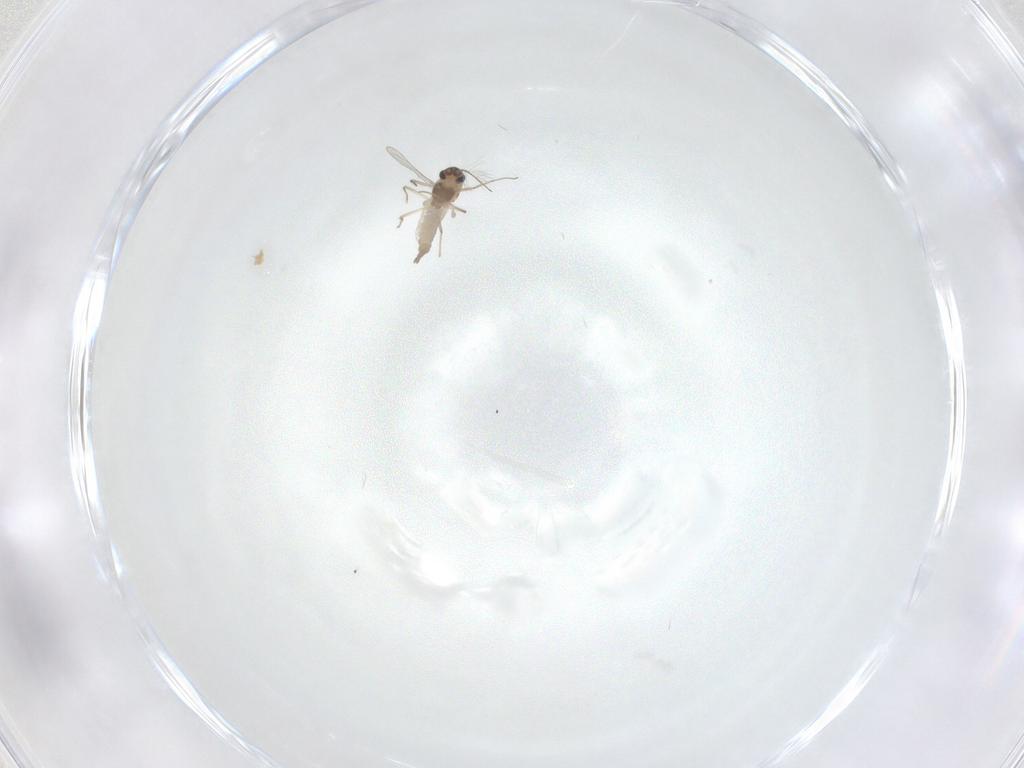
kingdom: Animalia
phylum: Arthropoda
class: Insecta
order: Diptera
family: Chironomidae
